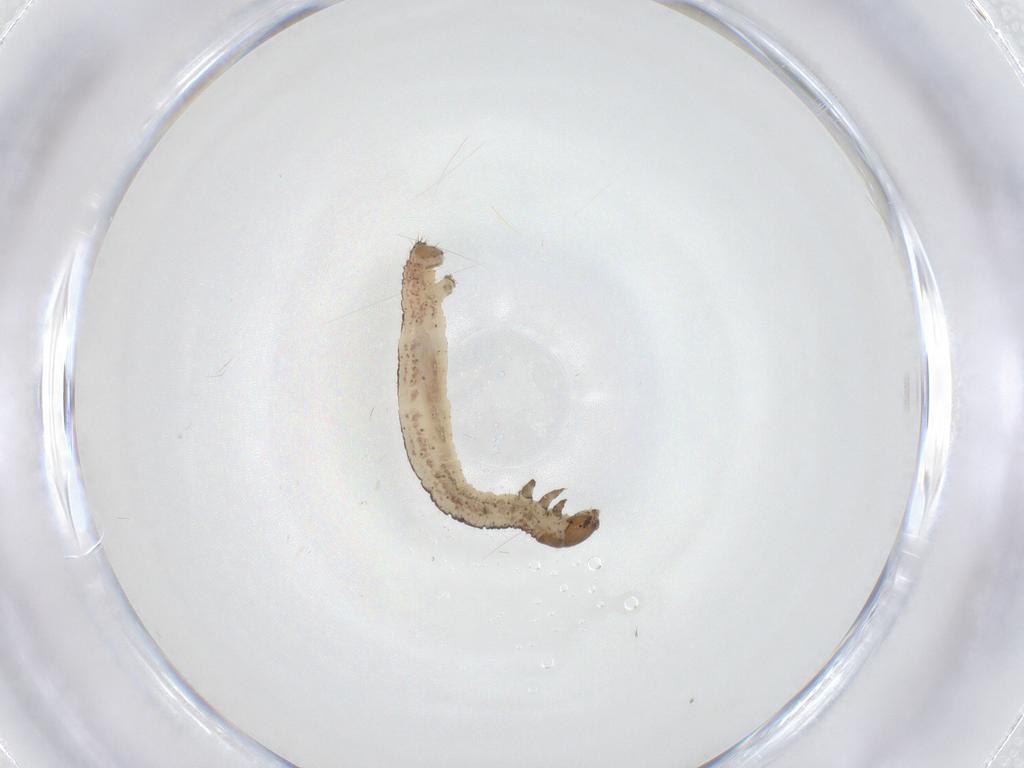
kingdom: Animalia
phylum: Arthropoda
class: Insecta
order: Lepidoptera
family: Geometridae
